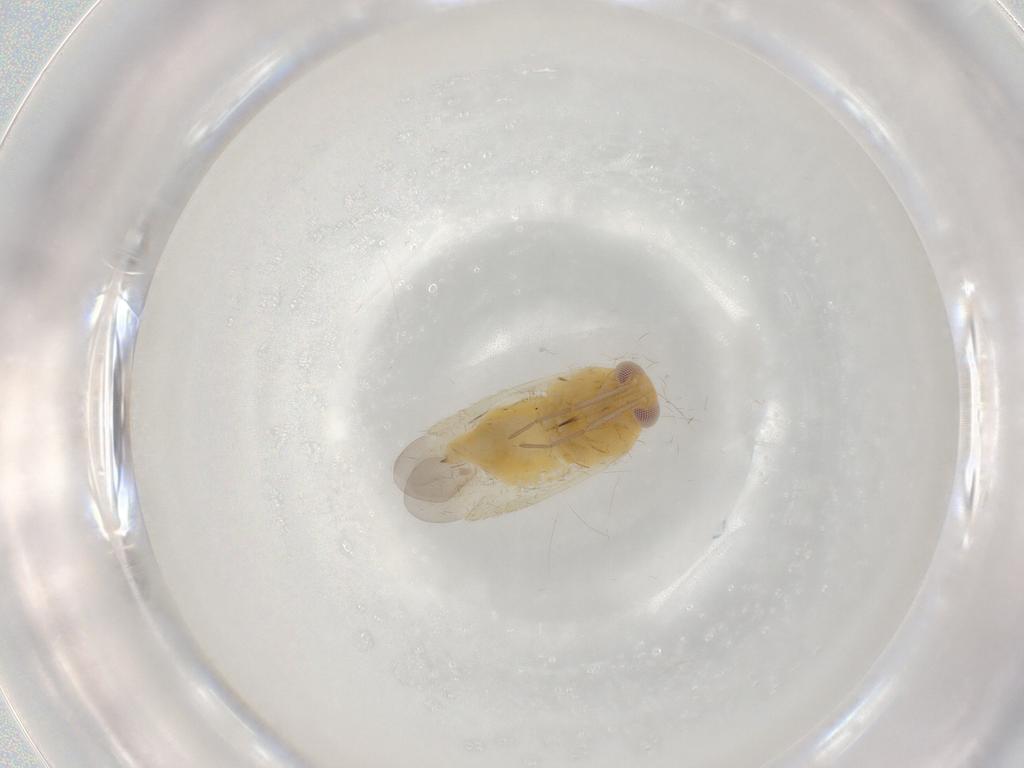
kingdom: Animalia
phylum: Arthropoda
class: Insecta
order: Hemiptera
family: Miridae
